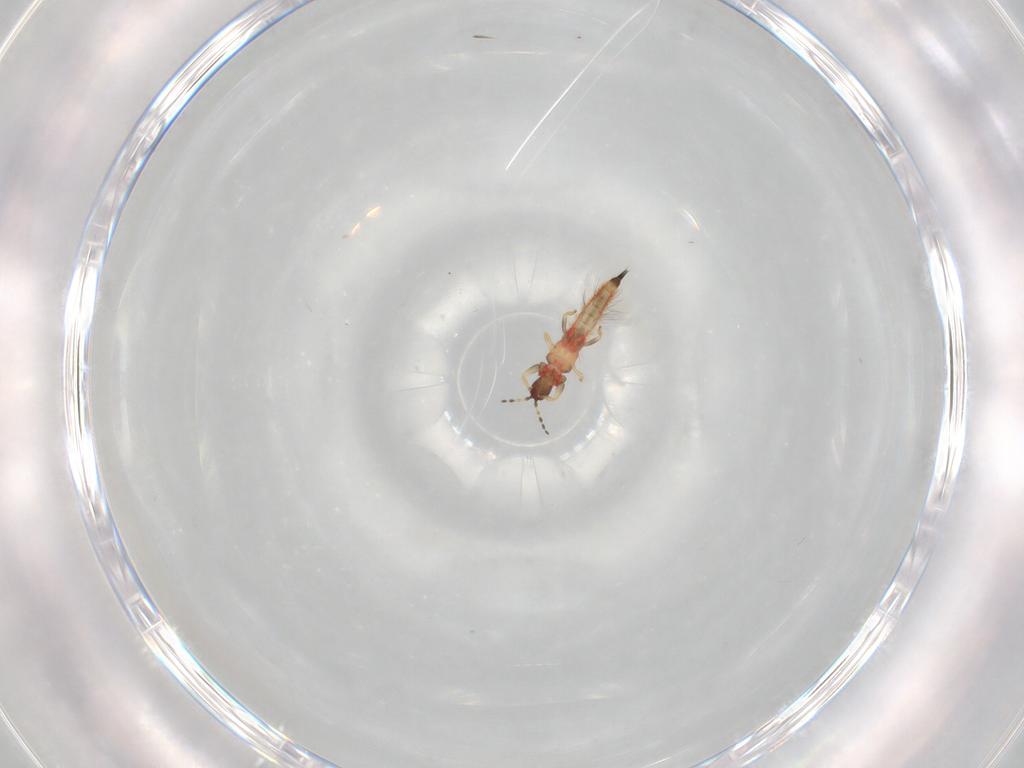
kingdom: Animalia
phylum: Arthropoda
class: Insecta
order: Thysanoptera
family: Phlaeothripidae
